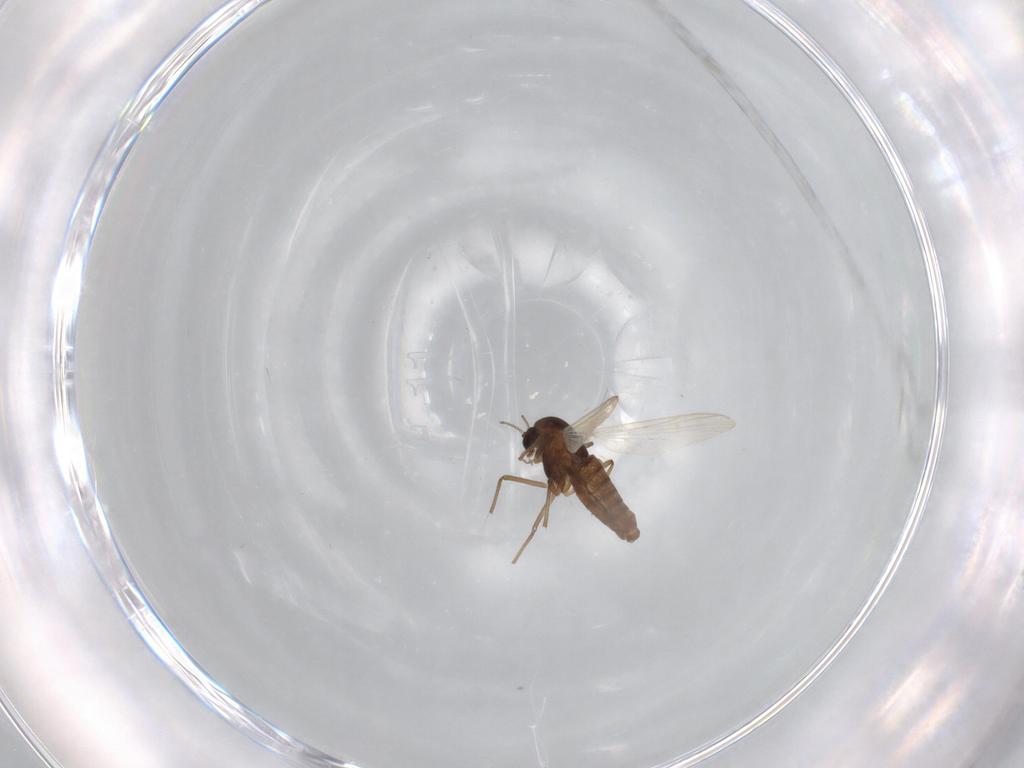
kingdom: Animalia
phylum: Arthropoda
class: Insecta
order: Diptera
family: Chironomidae
